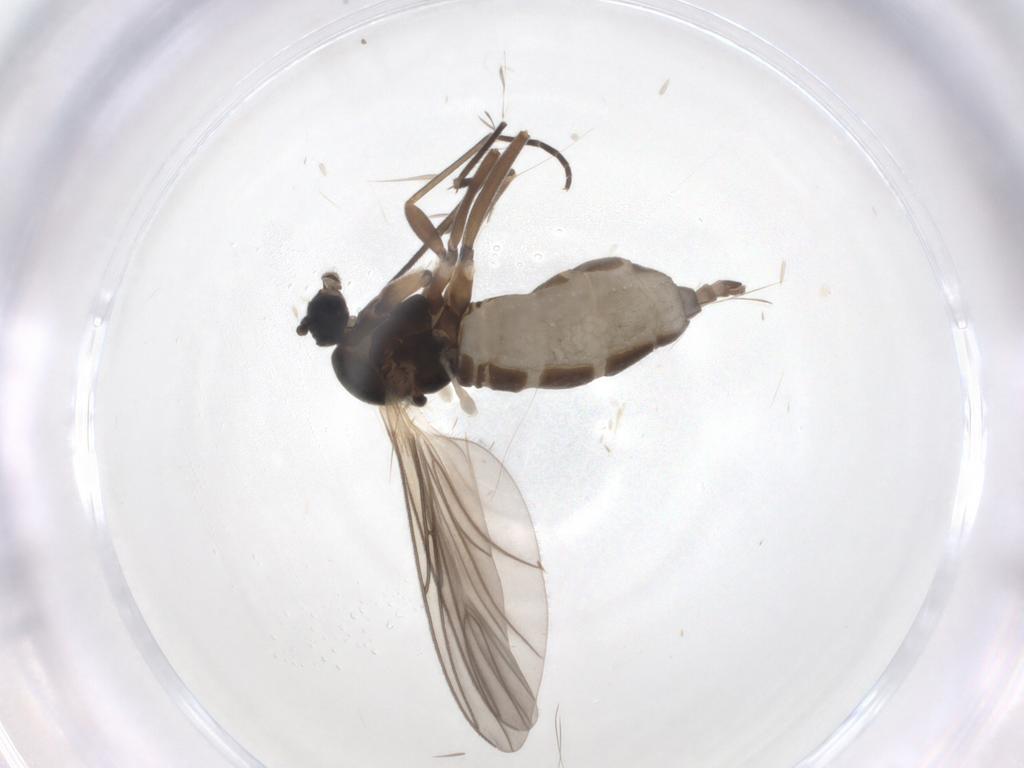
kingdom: Animalia
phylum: Arthropoda
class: Insecta
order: Diptera
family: Sciaridae
